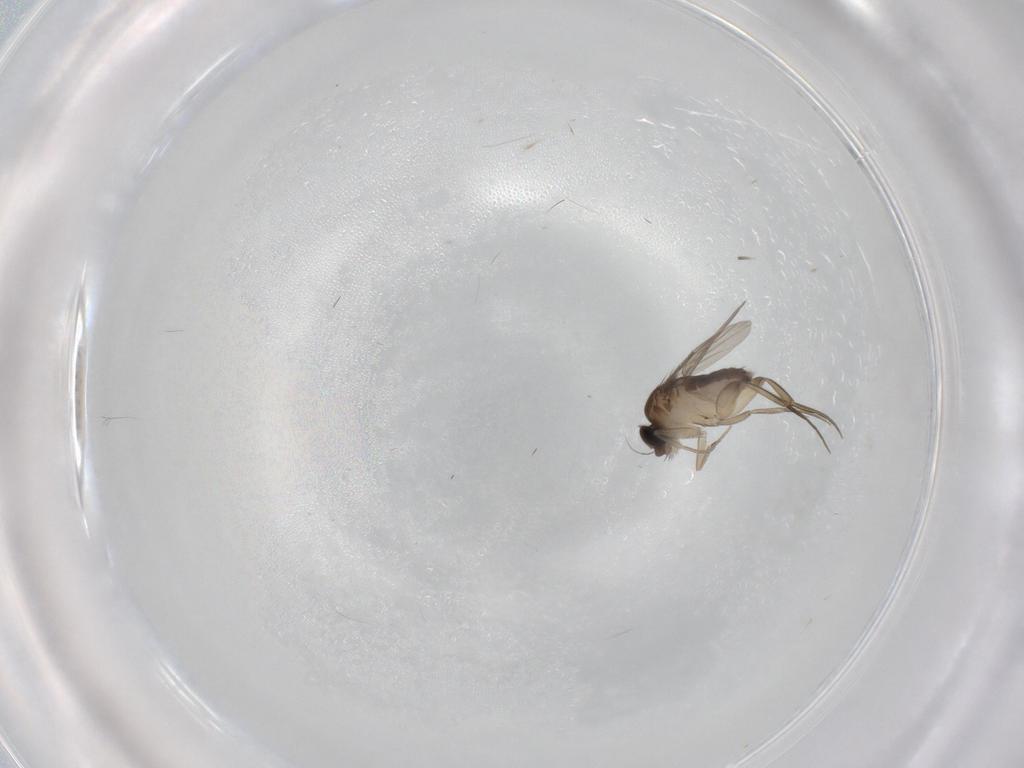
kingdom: Animalia
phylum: Arthropoda
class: Insecta
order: Diptera
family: Phoridae
